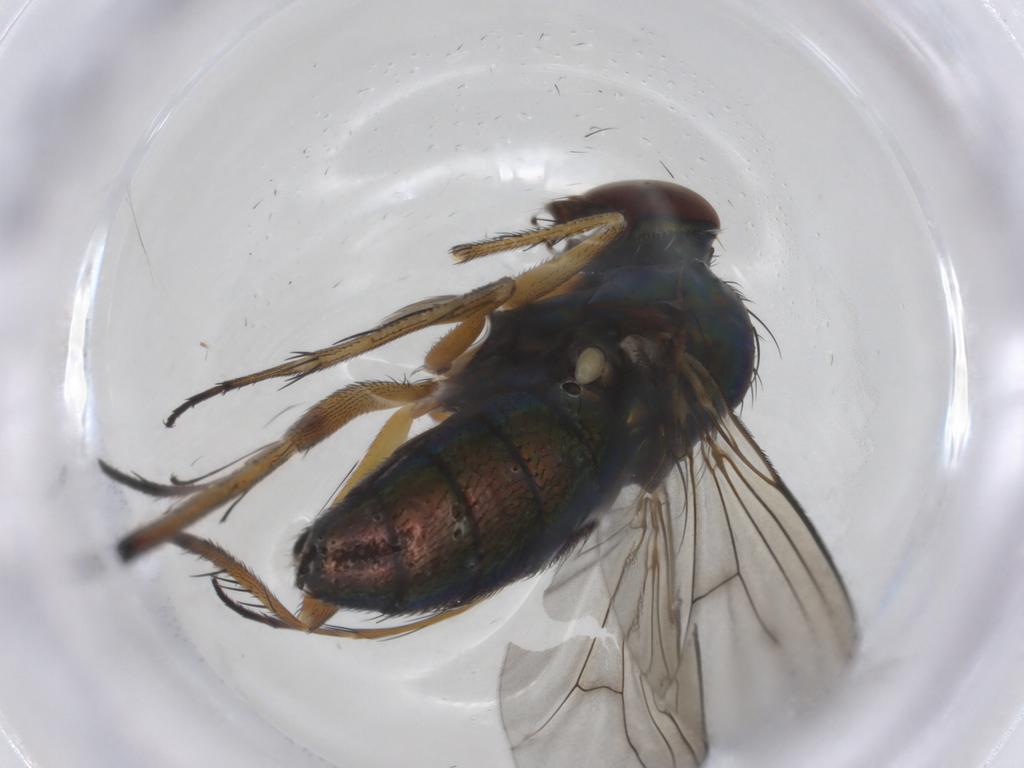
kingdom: Animalia
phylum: Arthropoda
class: Insecta
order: Diptera
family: Dolichopodidae
